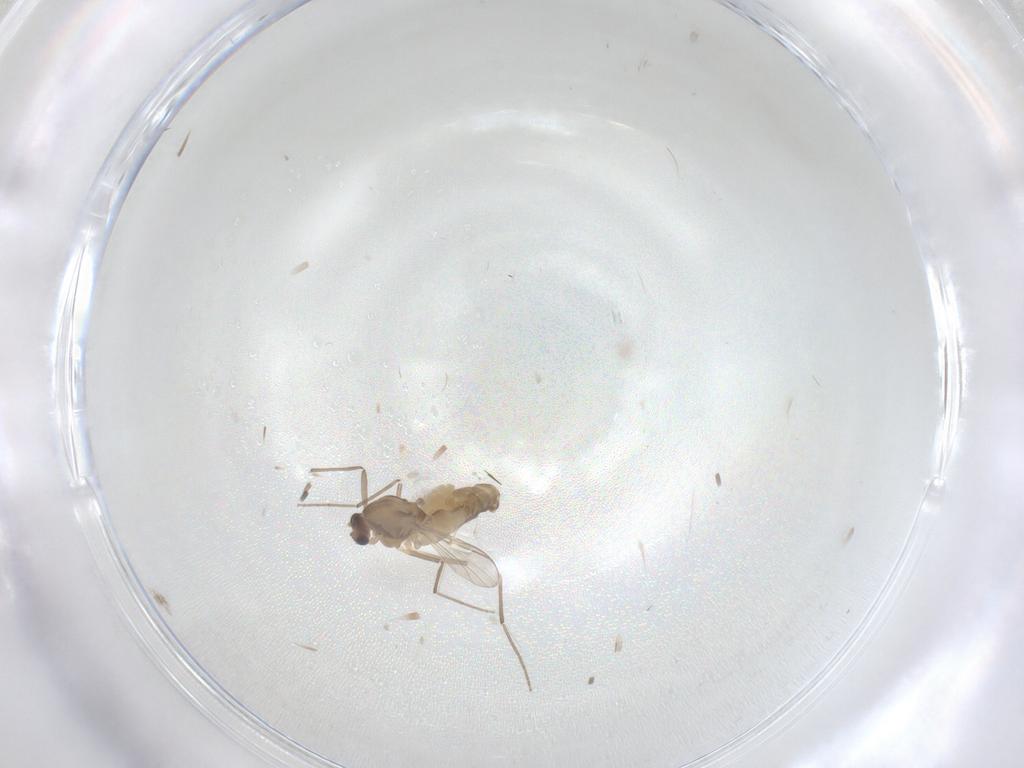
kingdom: Animalia
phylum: Arthropoda
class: Insecta
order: Diptera
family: Chironomidae
